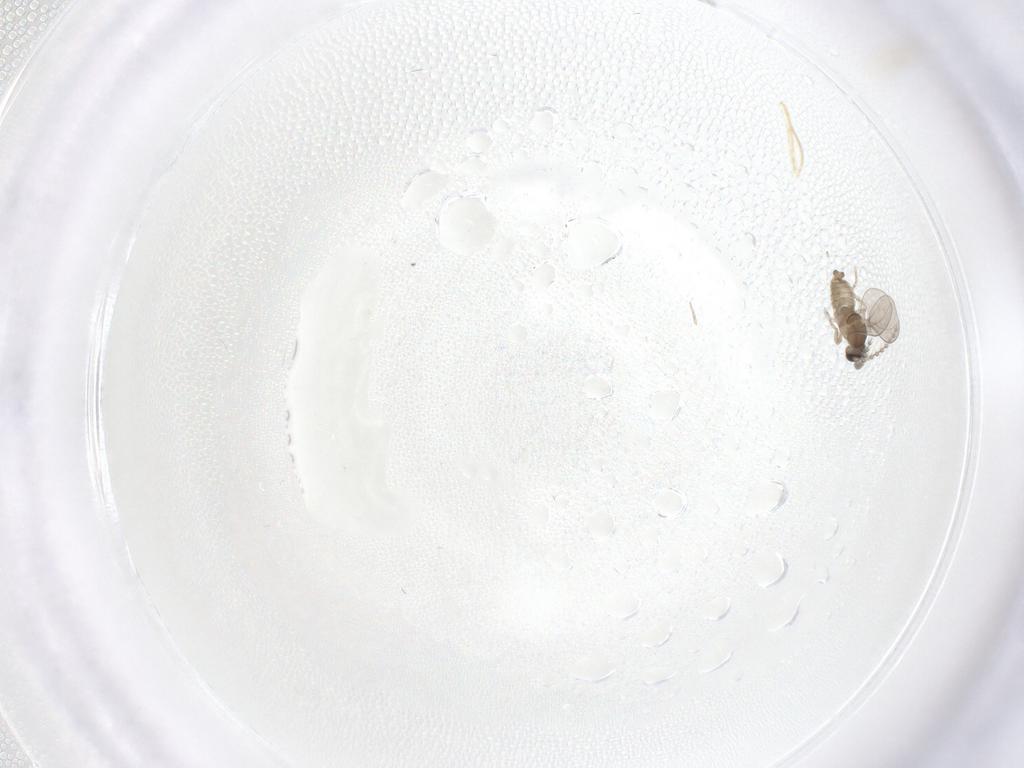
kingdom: Animalia
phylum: Arthropoda
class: Insecta
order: Diptera
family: Cecidomyiidae
